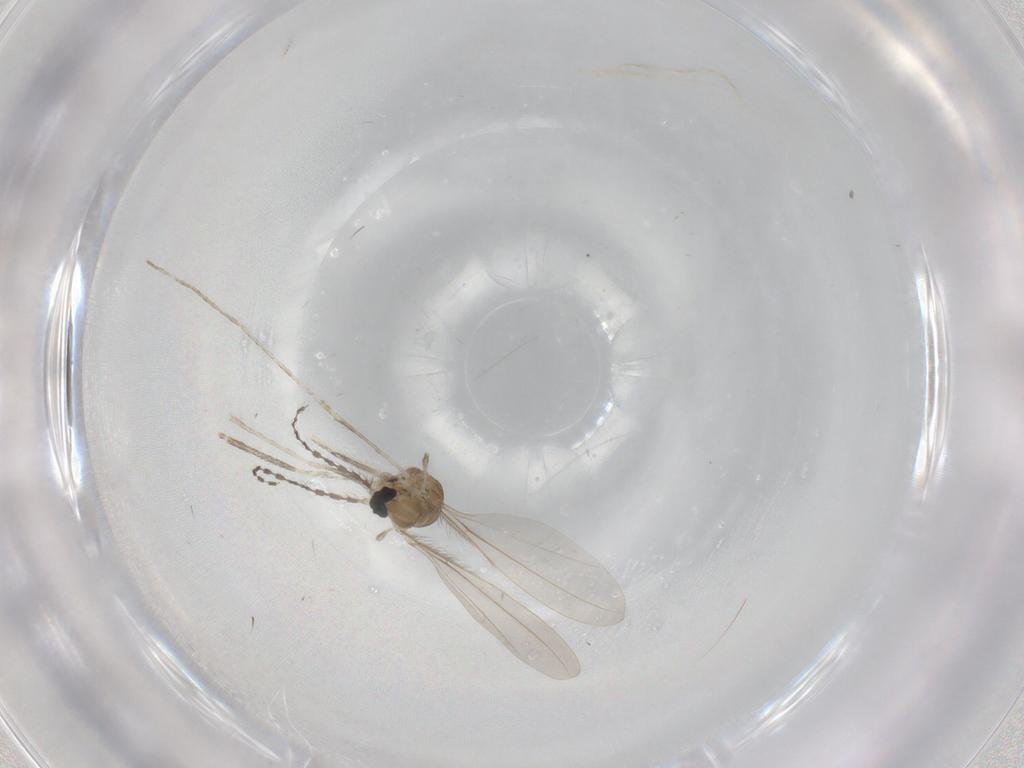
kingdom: Animalia
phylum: Arthropoda
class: Insecta
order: Diptera
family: Cecidomyiidae
